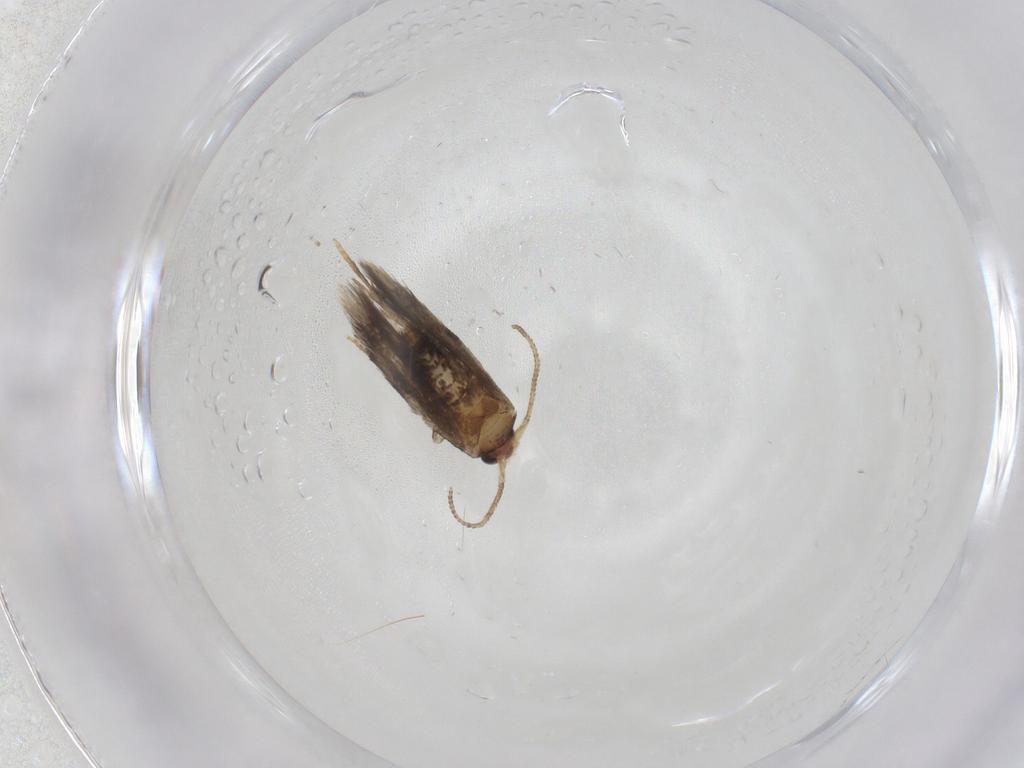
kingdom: Animalia
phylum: Arthropoda
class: Insecta
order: Lepidoptera
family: Nepticulidae
